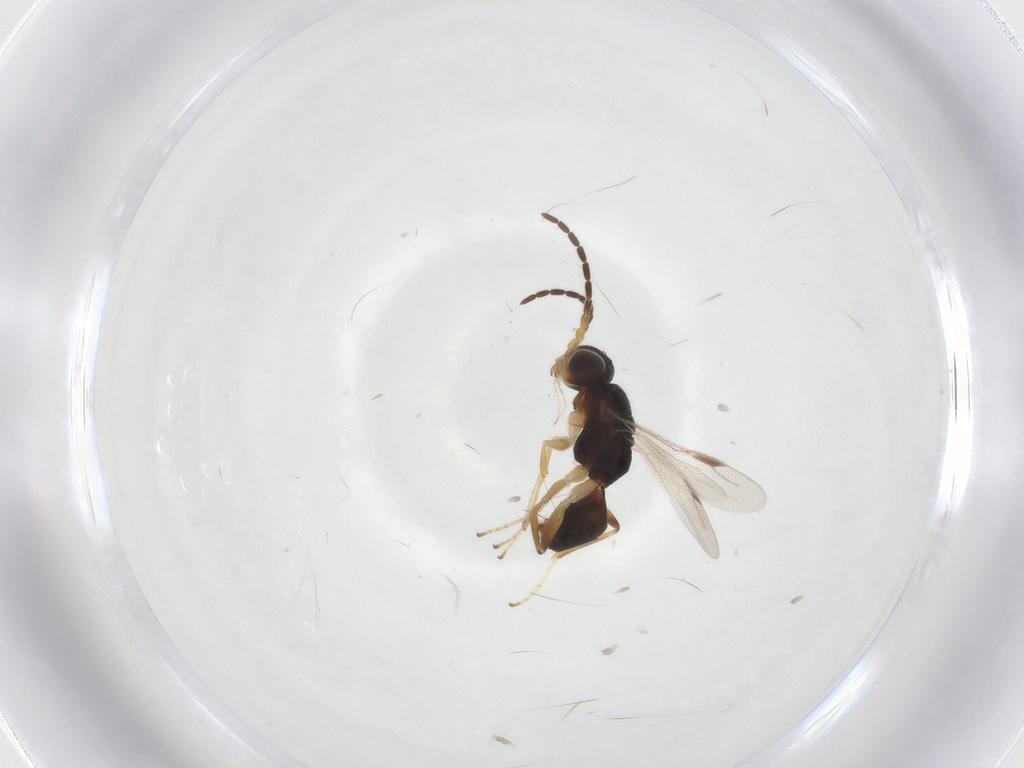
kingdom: Animalia
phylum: Arthropoda
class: Insecta
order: Hymenoptera
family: Dryinidae
